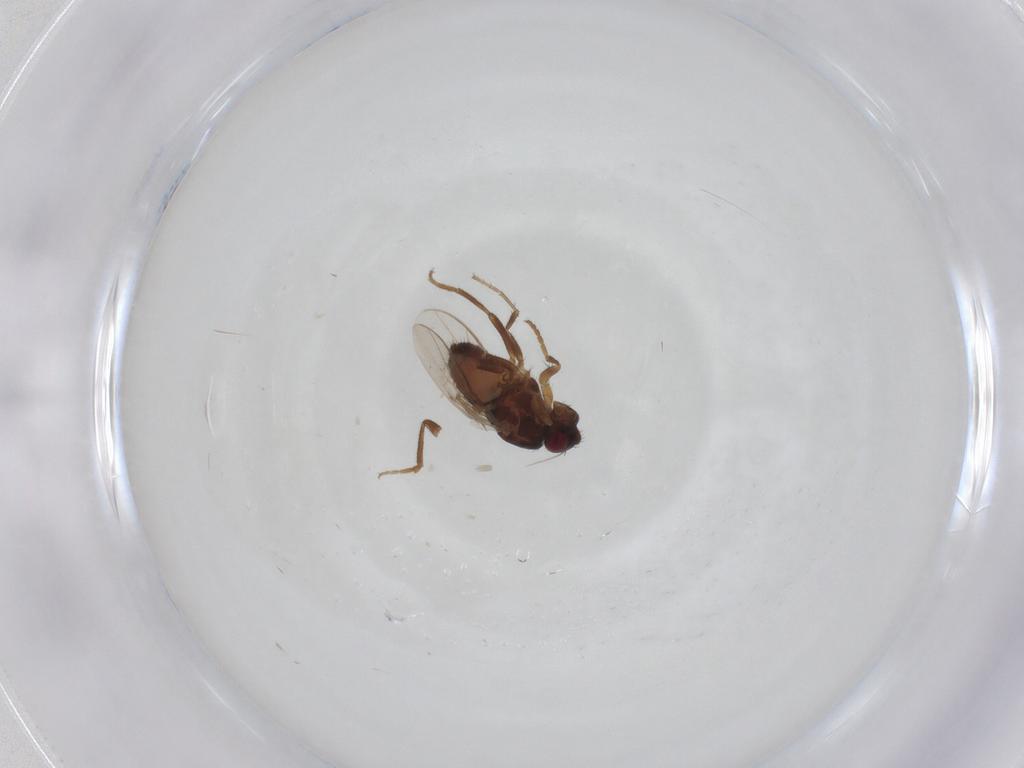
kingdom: Animalia
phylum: Arthropoda
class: Insecta
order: Diptera
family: Sphaeroceridae
